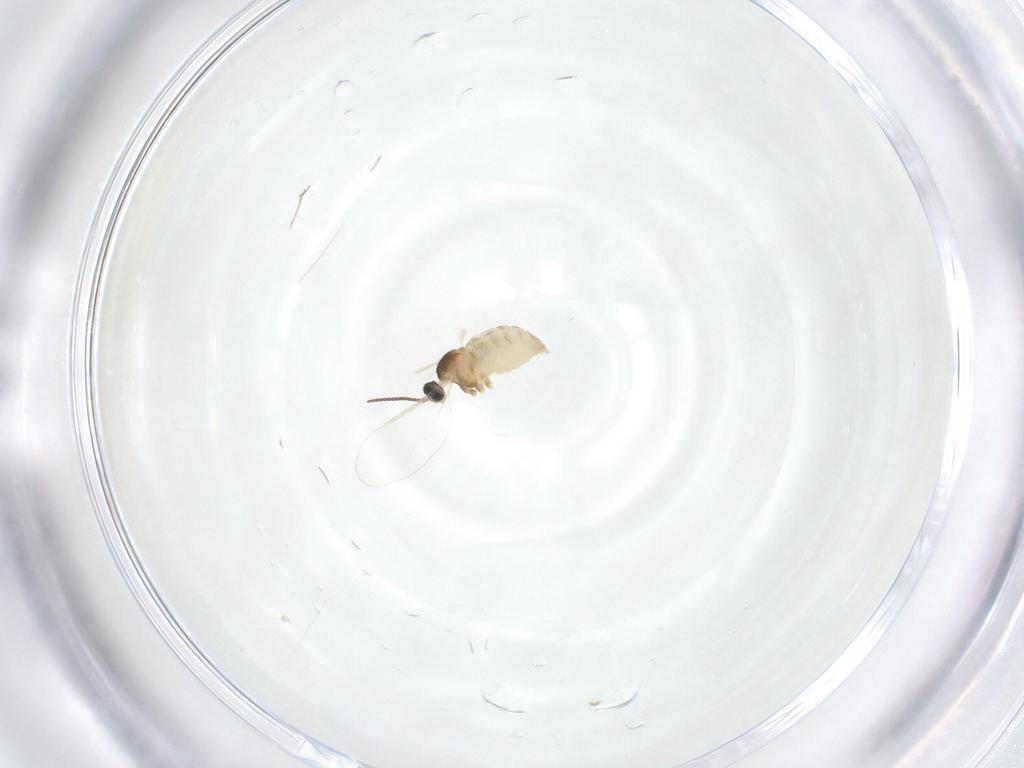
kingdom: Animalia
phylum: Arthropoda
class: Insecta
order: Diptera
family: Cecidomyiidae
